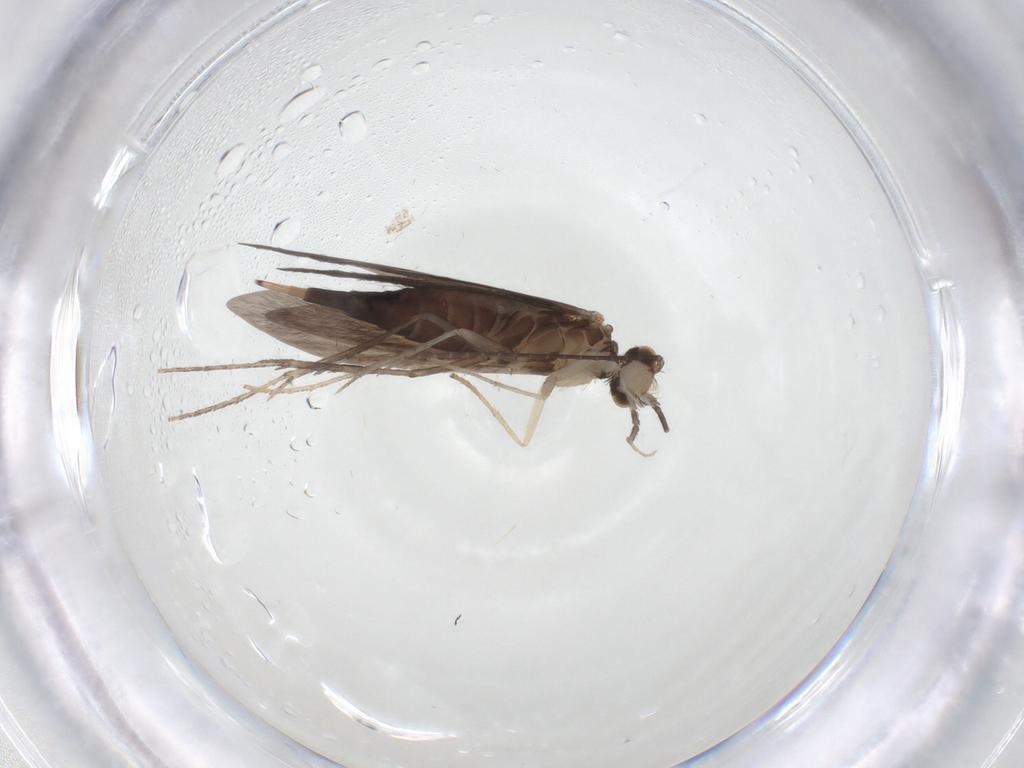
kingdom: Animalia
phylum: Arthropoda
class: Insecta
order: Trichoptera
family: Xiphocentronidae
